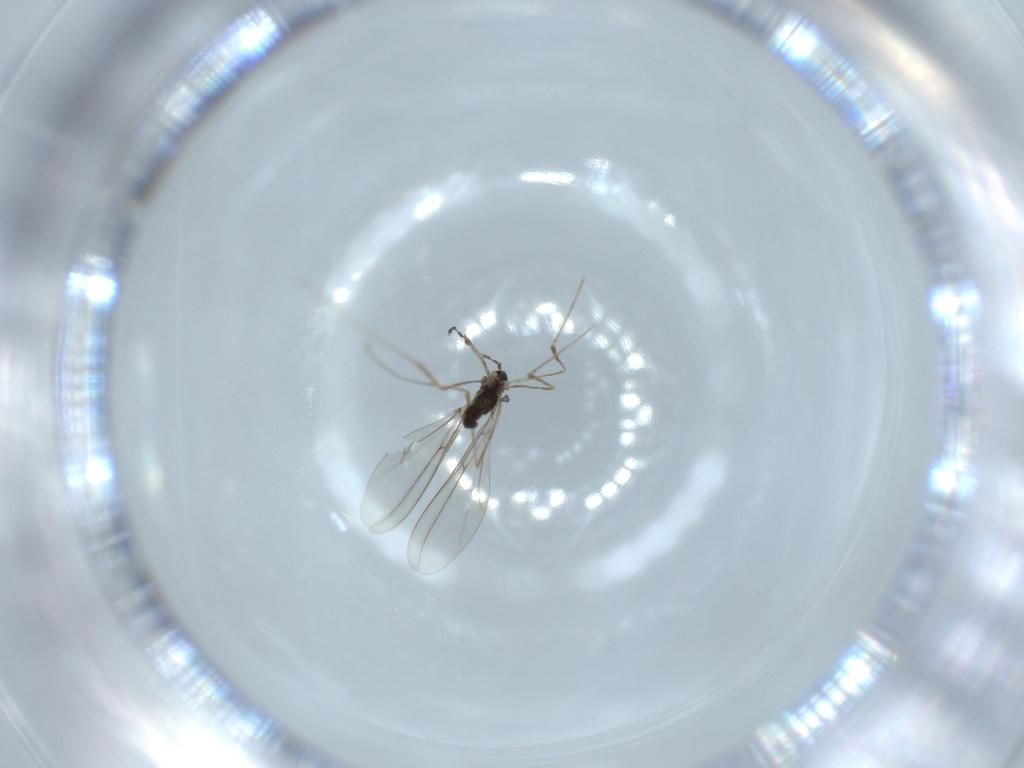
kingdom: Animalia
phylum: Arthropoda
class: Insecta
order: Diptera
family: Cecidomyiidae
